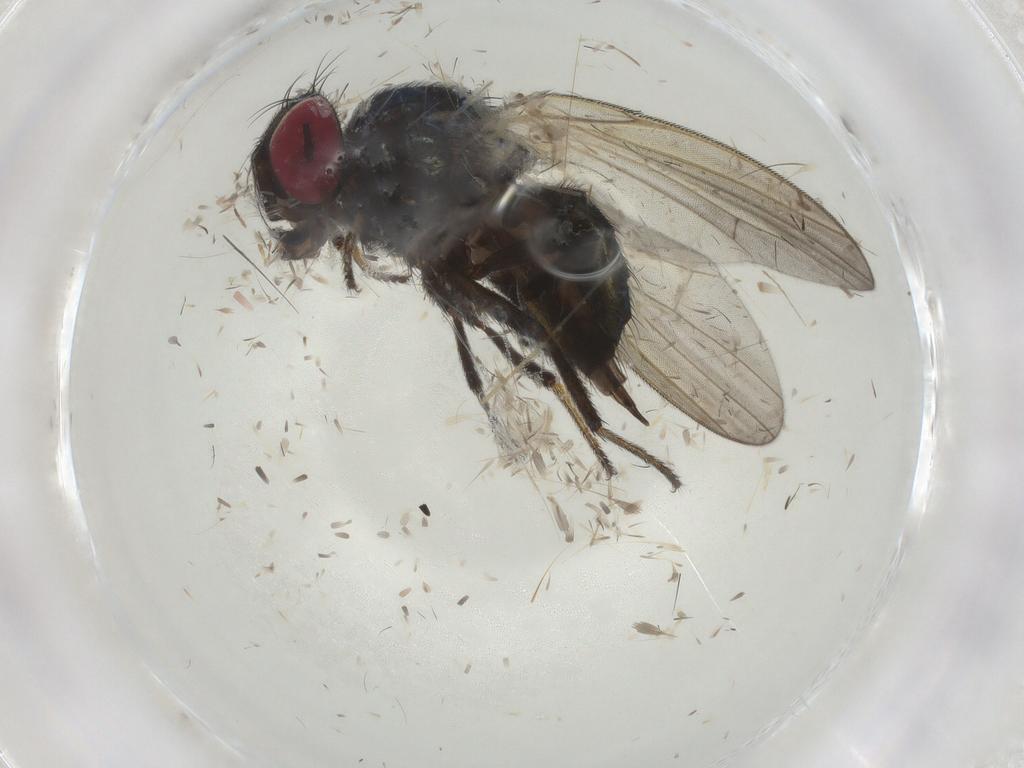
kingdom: Animalia
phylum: Arthropoda
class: Insecta
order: Diptera
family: Lonchaeidae
